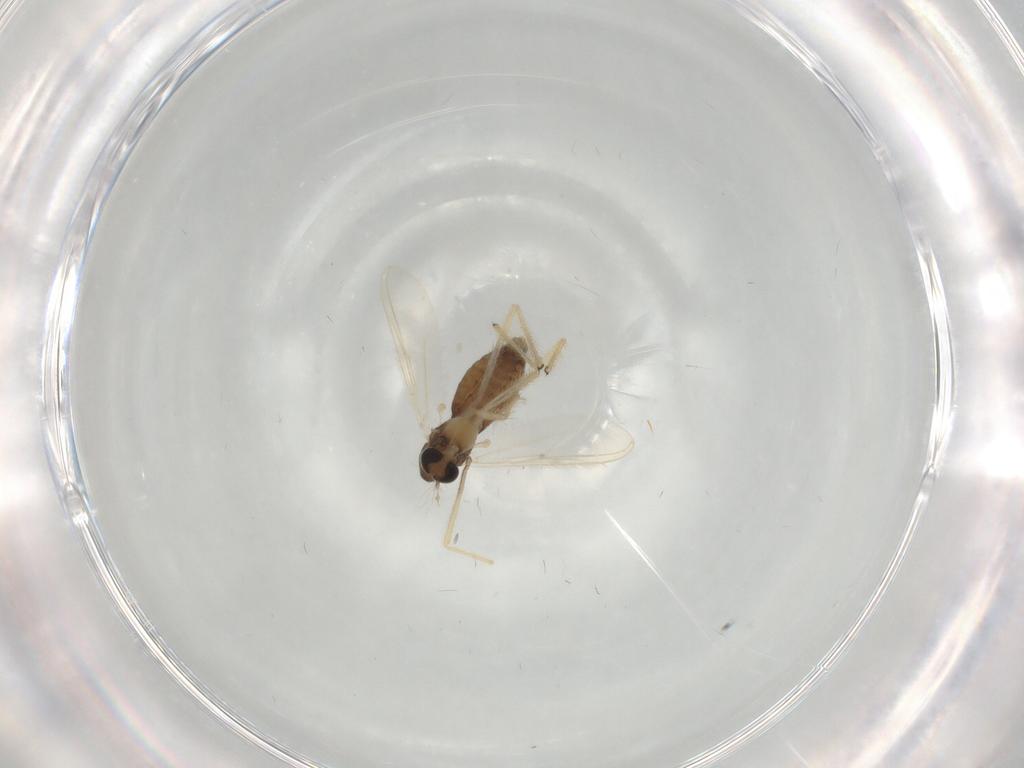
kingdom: Animalia
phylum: Arthropoda
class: Insecta
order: Diptera
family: Chironomidae
